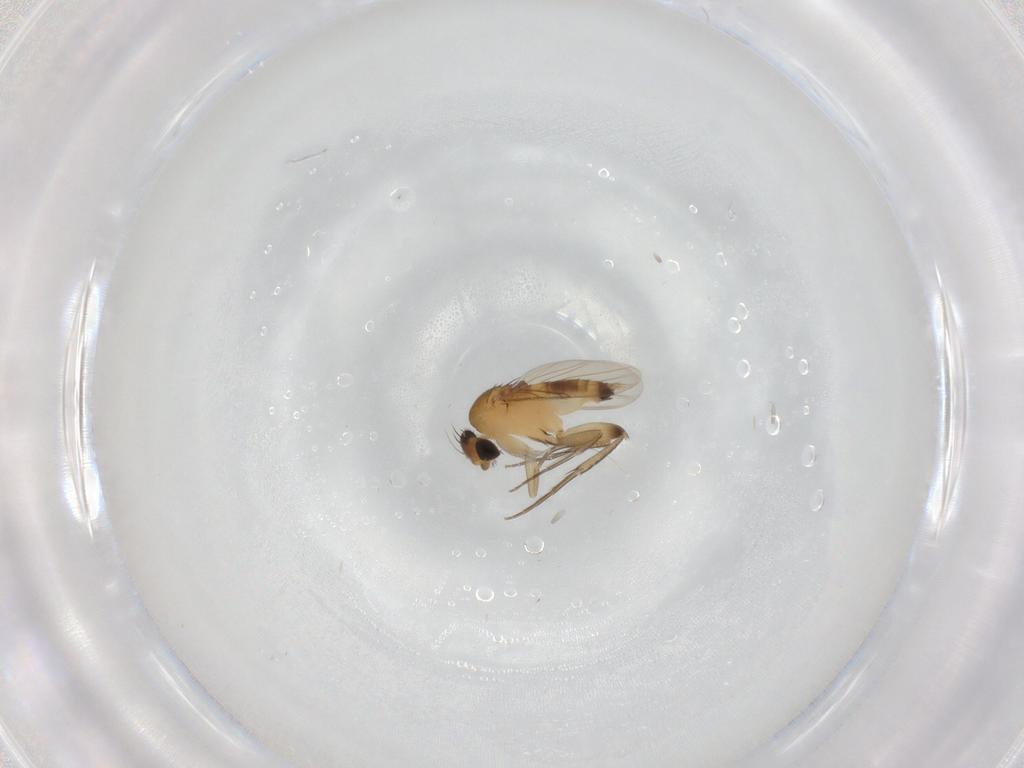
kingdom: Animalia
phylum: Arthropoda
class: Insecta
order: Diptera
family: Phoridae
